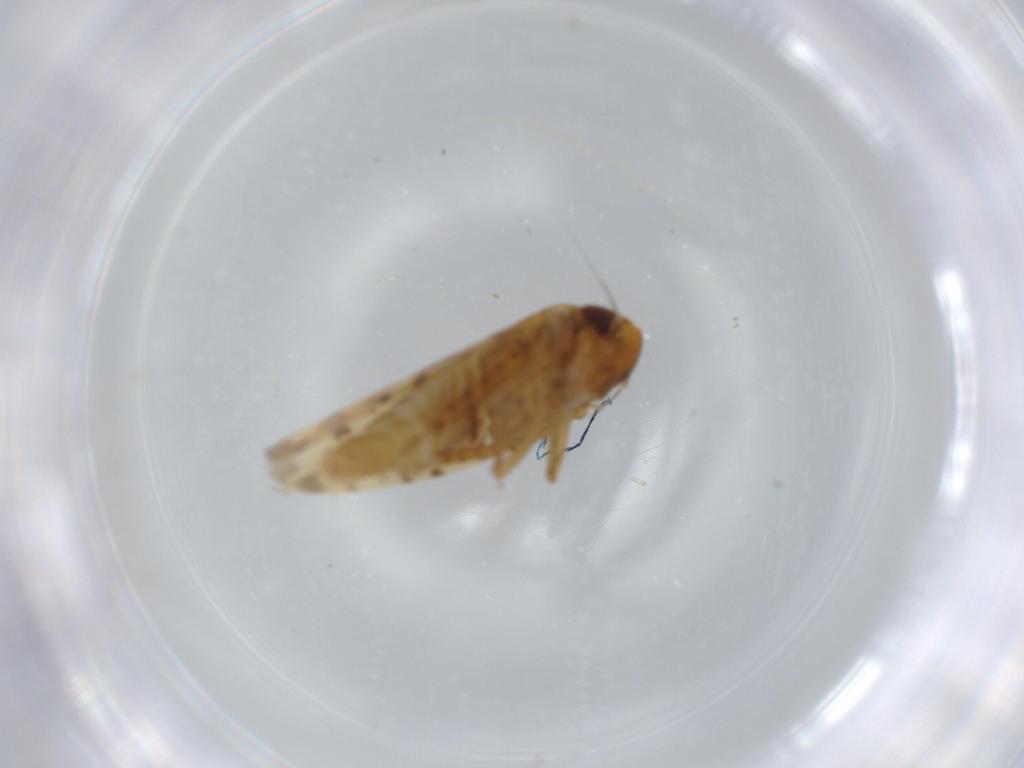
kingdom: Animalia
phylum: Arthropoda
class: Insecta
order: Hemiptera
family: Cicadellidae
